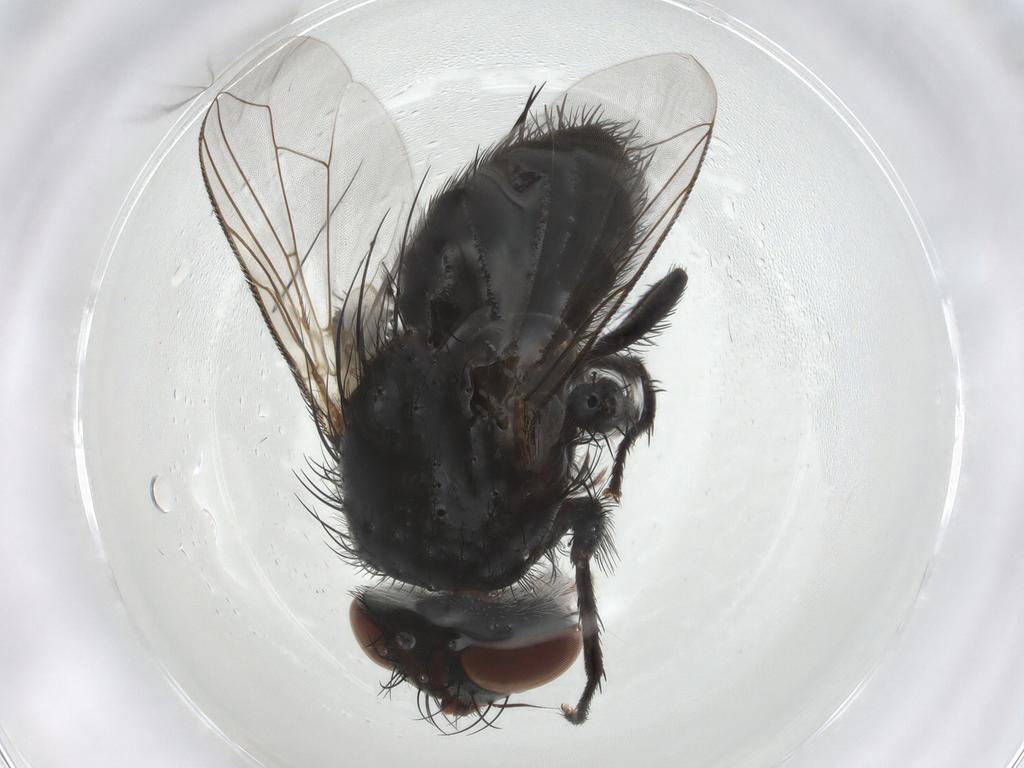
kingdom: Animalia
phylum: Arthropoda
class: Insecta
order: Diptera
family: Tachinidae
